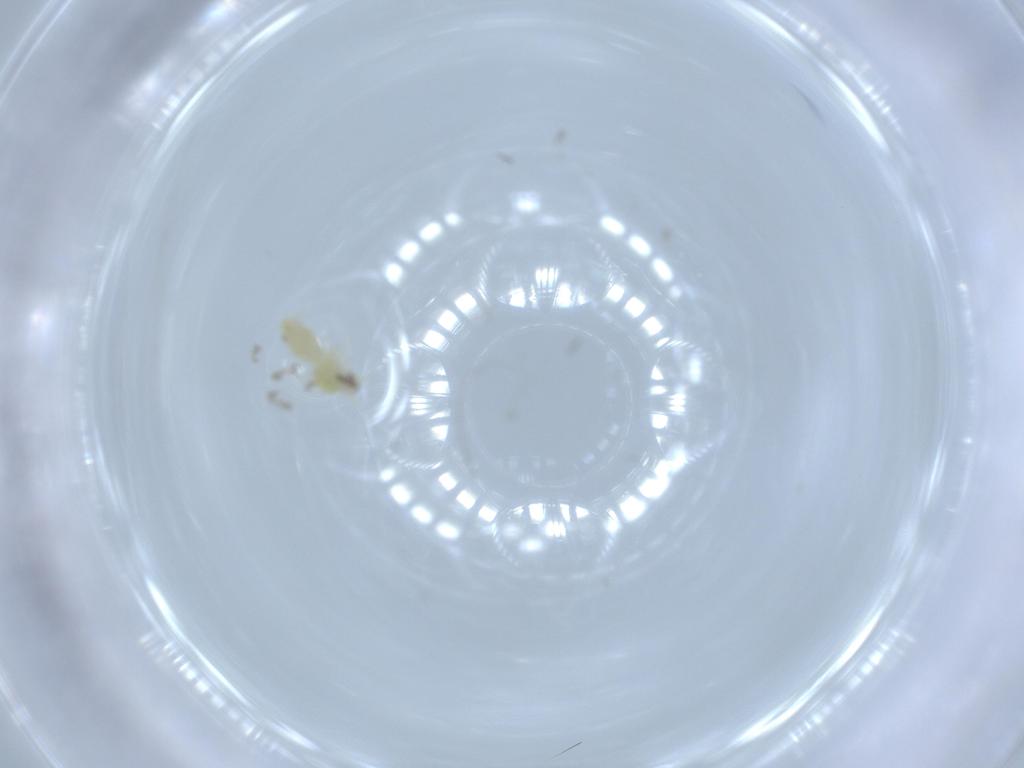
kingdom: Animalia
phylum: Arthropoda
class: Insecta
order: Hemiptera
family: Aleyrodidae
